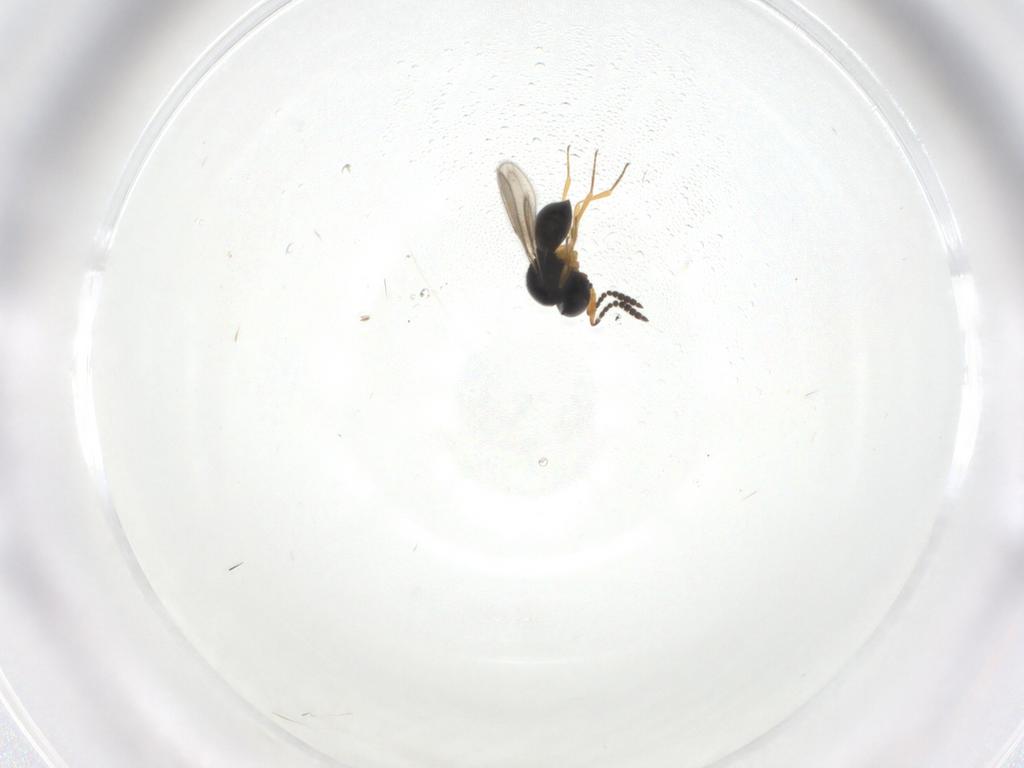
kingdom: Animalia
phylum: Arthropoda
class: Insecta
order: Hymenoptera
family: Scelionidae
